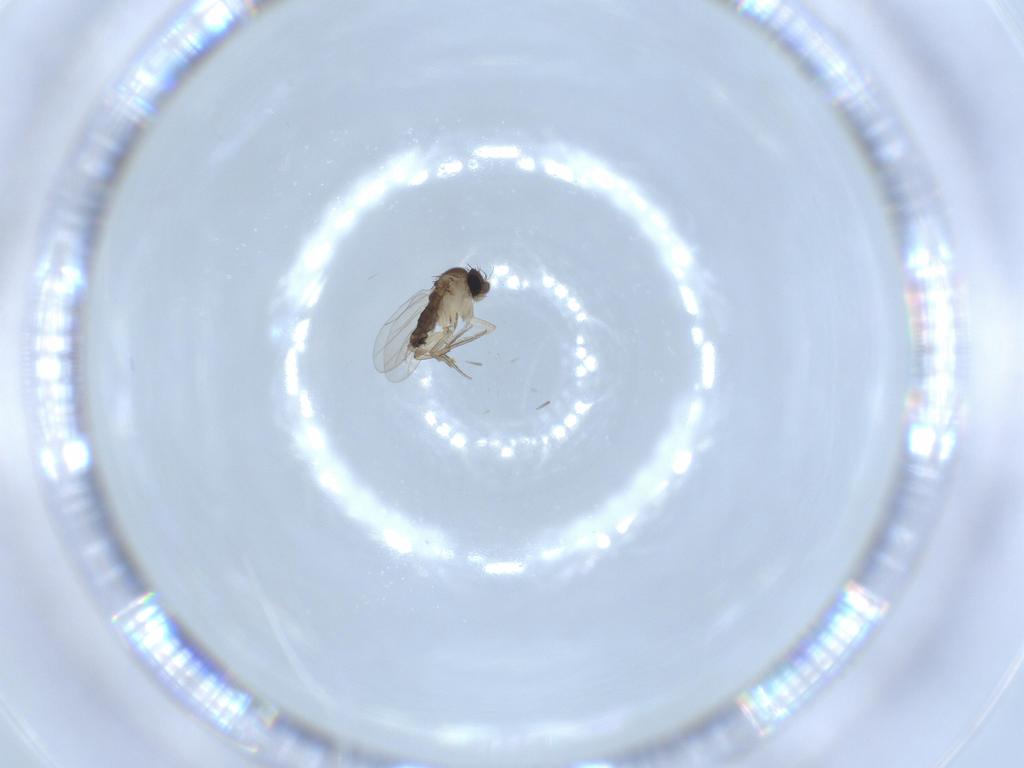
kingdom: Animalia
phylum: Arthropoda
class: Insecta
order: Diptera
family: Phoridae
